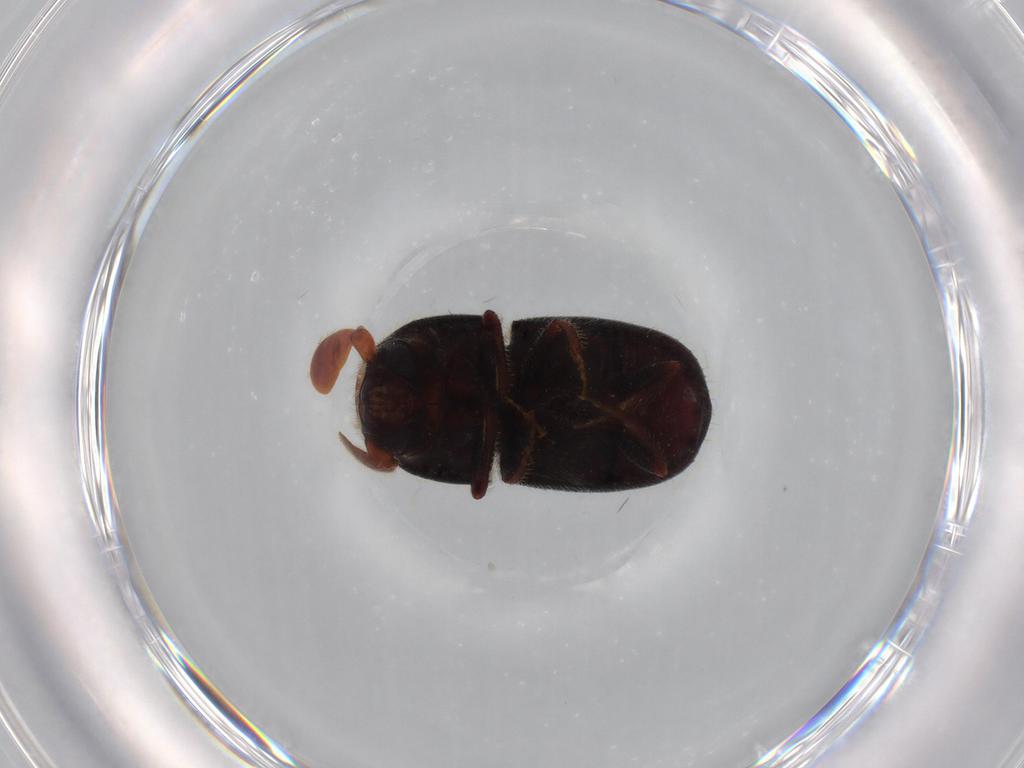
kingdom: Animalia
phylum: Arthropoda
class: Insecta
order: Coleoptera
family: Curculionidae
